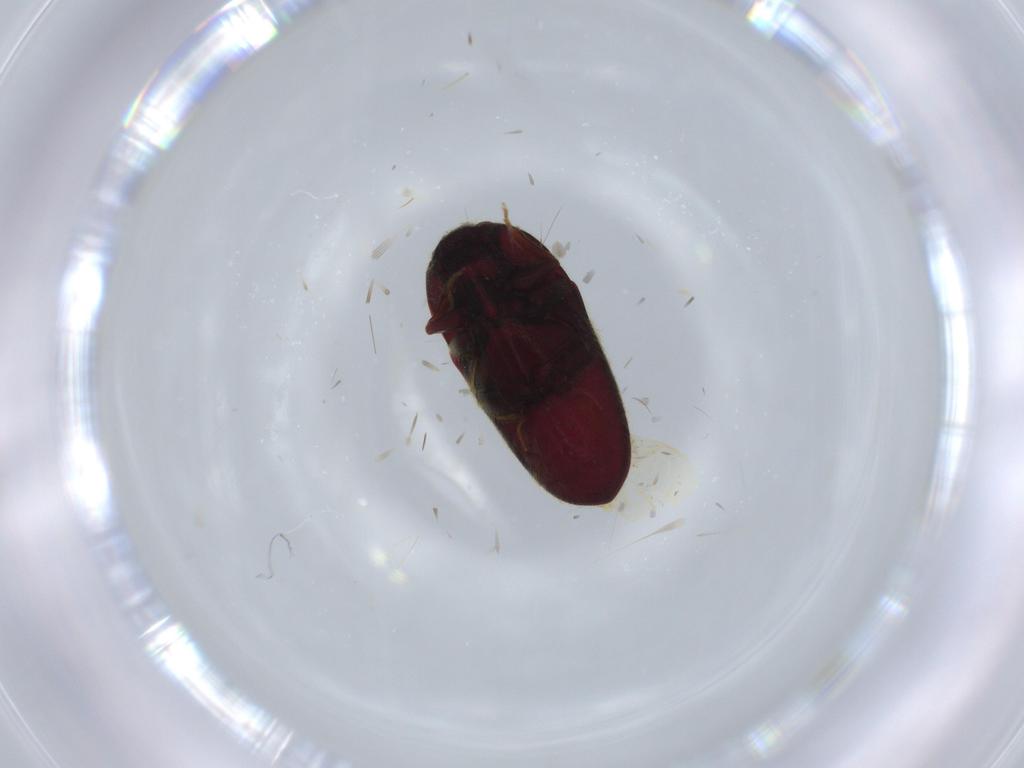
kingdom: Animalia
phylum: Arthropoda
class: Insecta
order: Coleoptera
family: Throscidae
